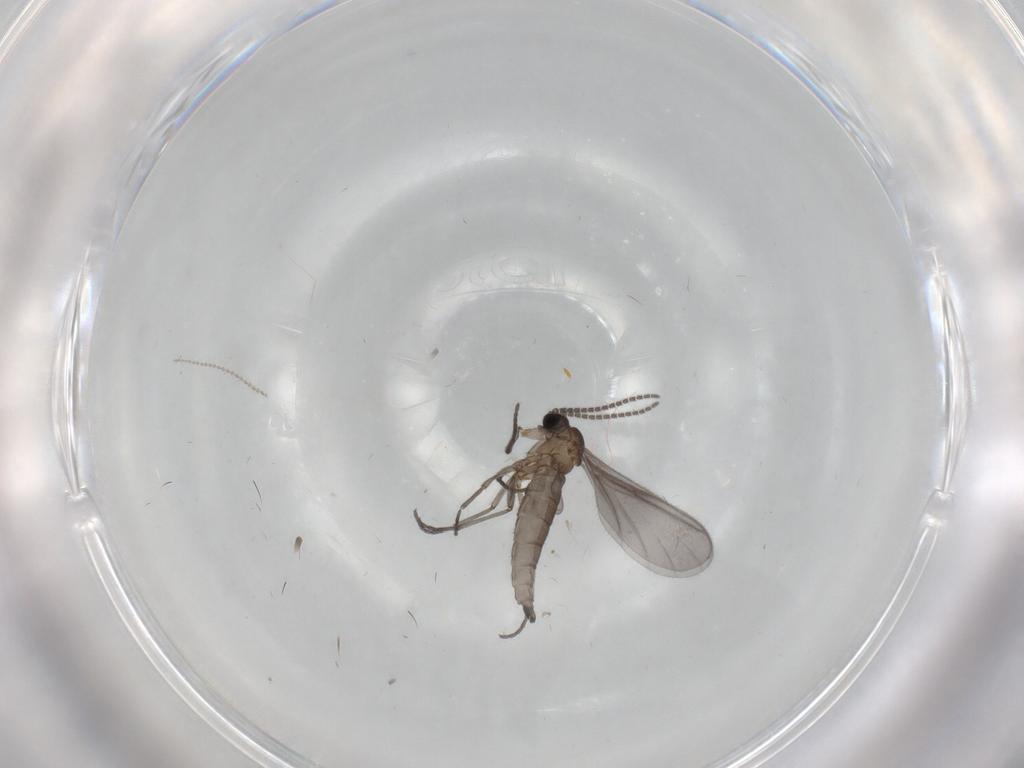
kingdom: Animalia
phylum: Arthropoda
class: Insecta
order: Diptera
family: Sciaridae
